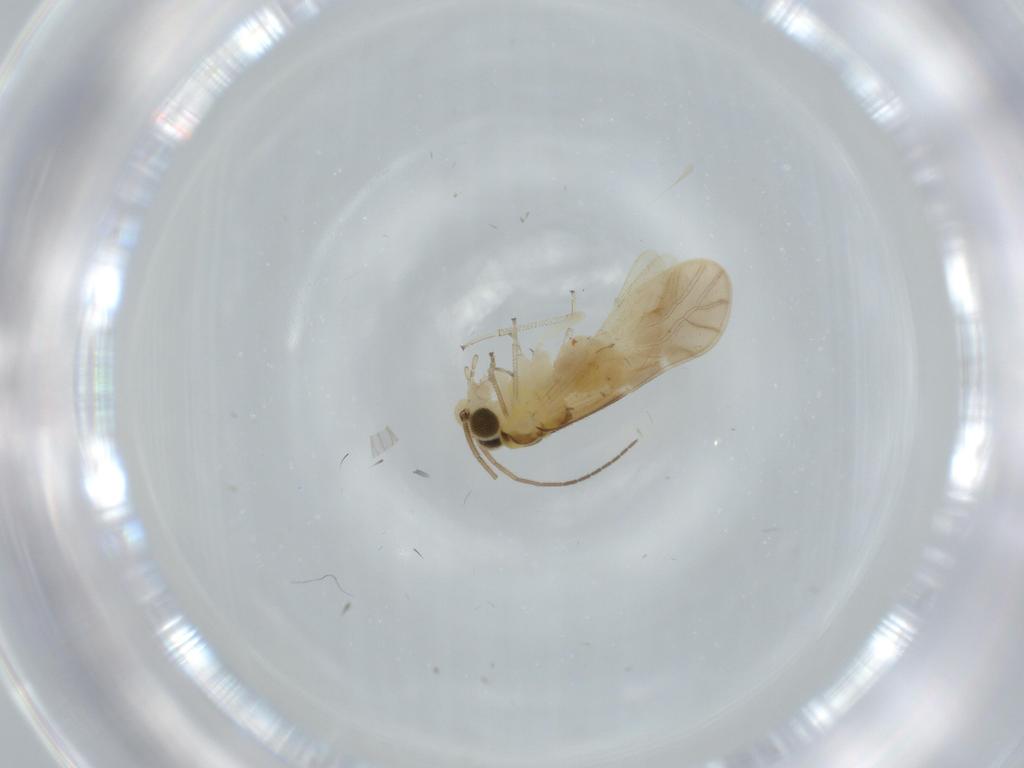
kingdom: Animalia
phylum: Arthropoda
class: Insecta
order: Psocodea
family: Caeciliusidae
